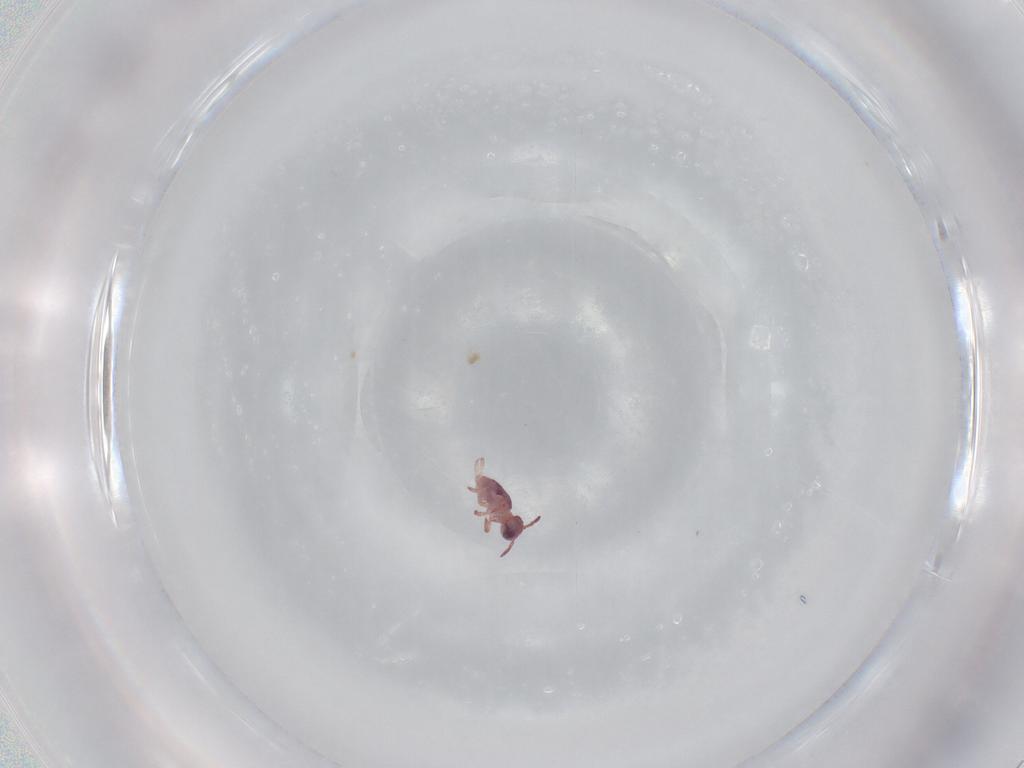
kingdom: Animalia
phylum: Arthropoda
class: Collembola
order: Symphypleona
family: Sminthurididae
